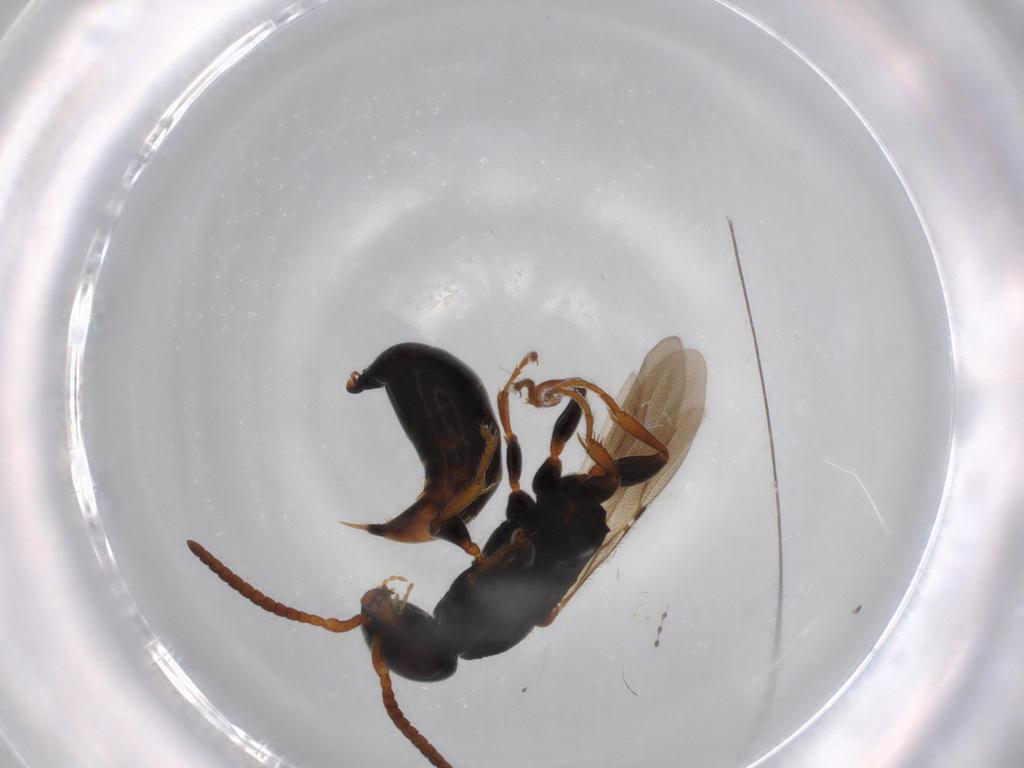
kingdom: Animalia
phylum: Arthropoda
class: Insecta
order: Hymenoptera
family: Bethylidae
